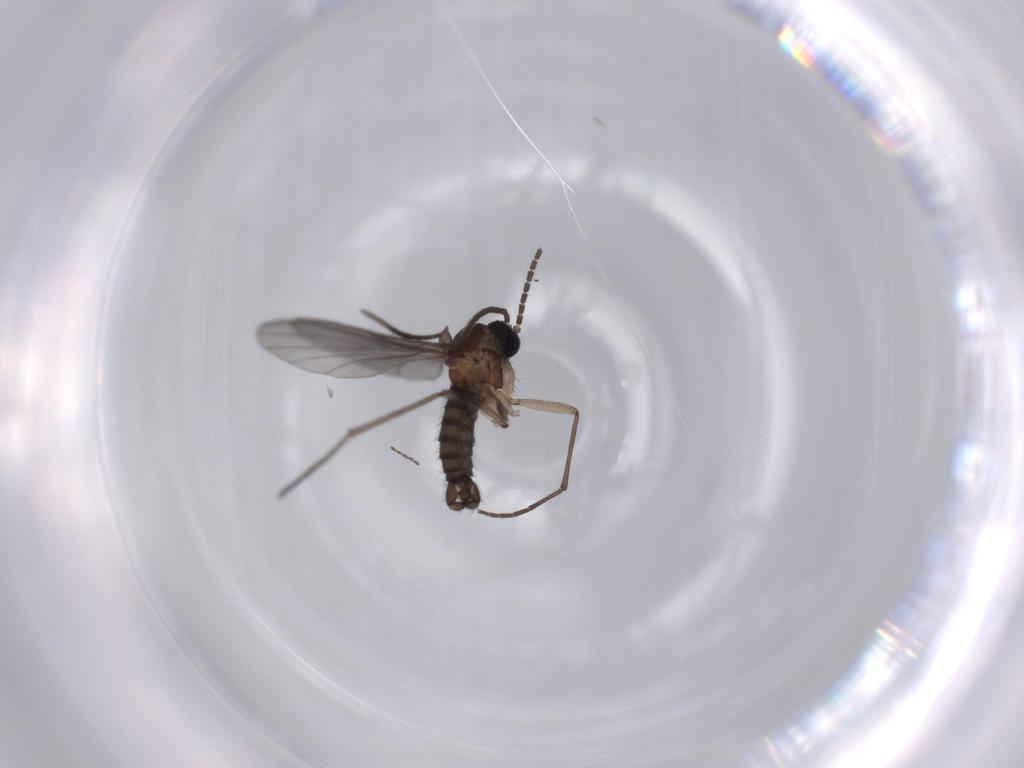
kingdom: Animalia
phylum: Arthropoda
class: Insecta
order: Diptera
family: Sciaridae
